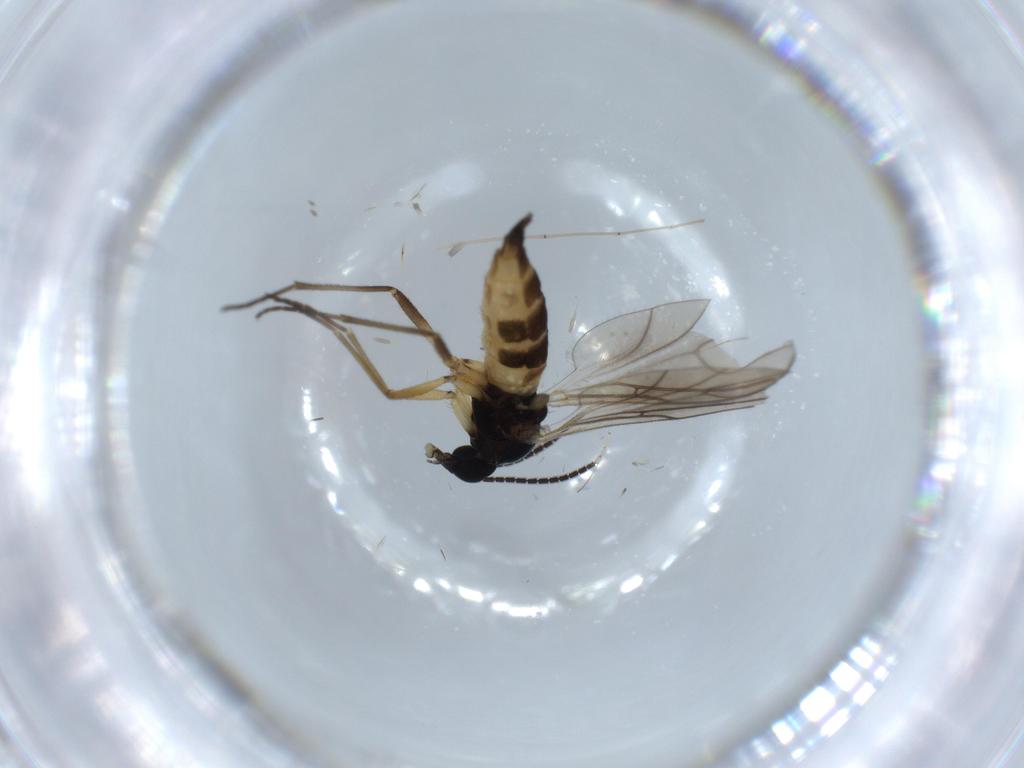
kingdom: Animalia
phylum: Arthropoda
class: Insecta
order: Diptera
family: Sciaridae
